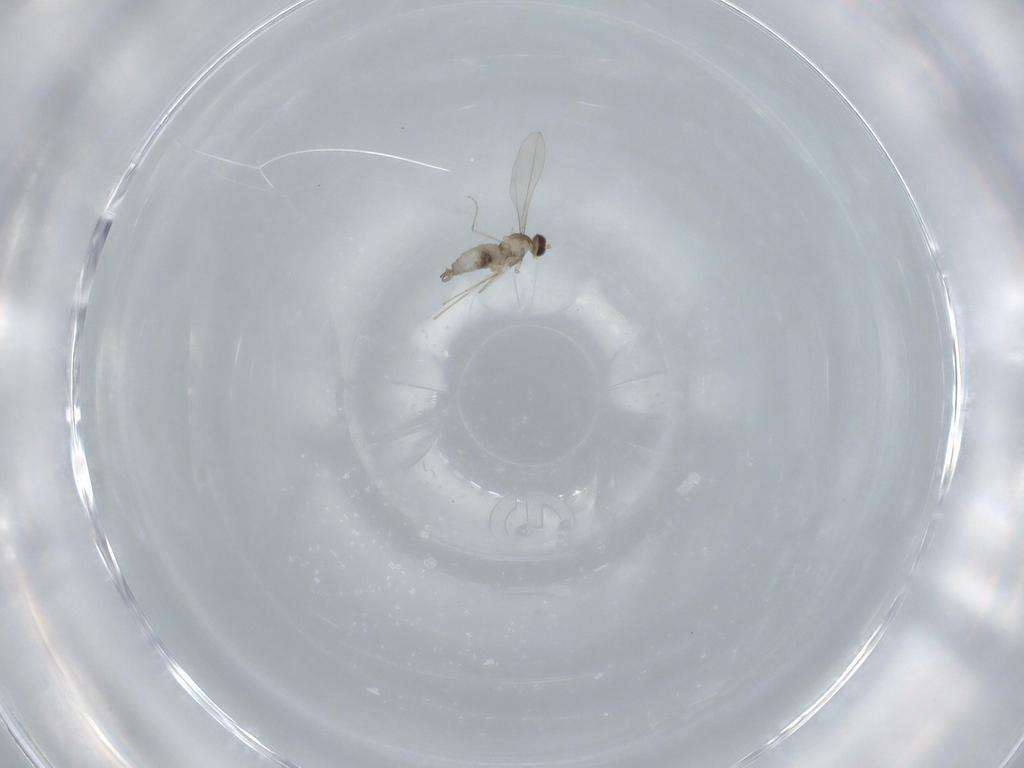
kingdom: Animalia
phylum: Arthropoda
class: Insecta
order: Diptera
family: Cecidomyiidae
